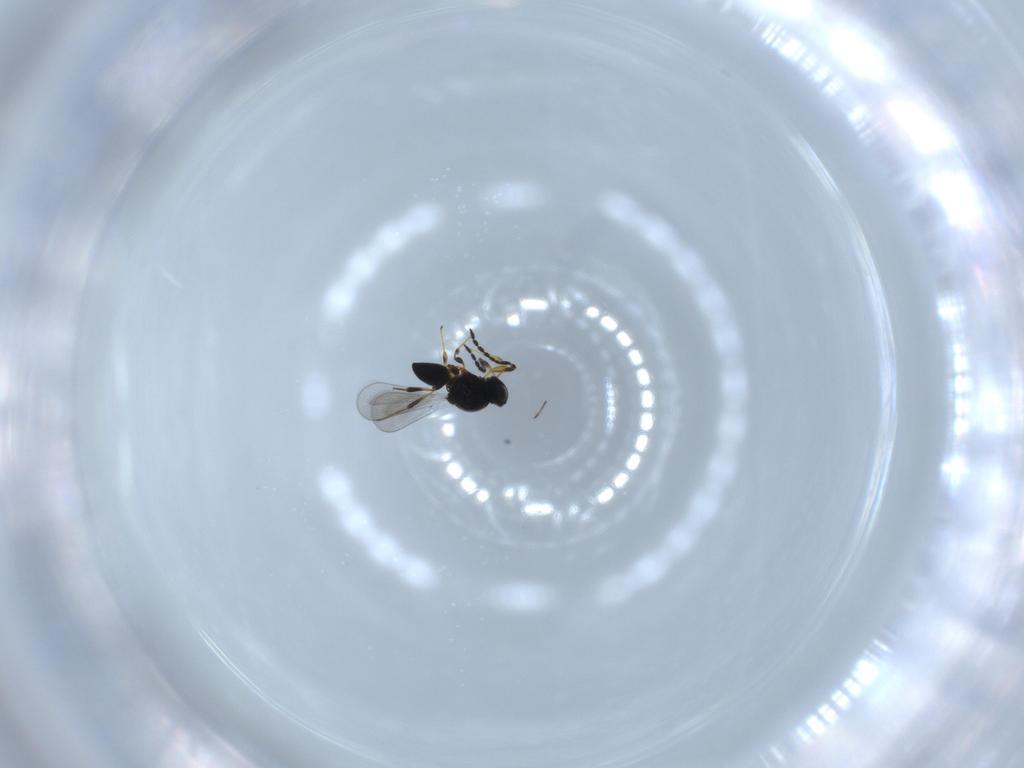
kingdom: Animalia
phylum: Arthropoda
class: Insecta
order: Hymenoptera
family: Platygastridae
